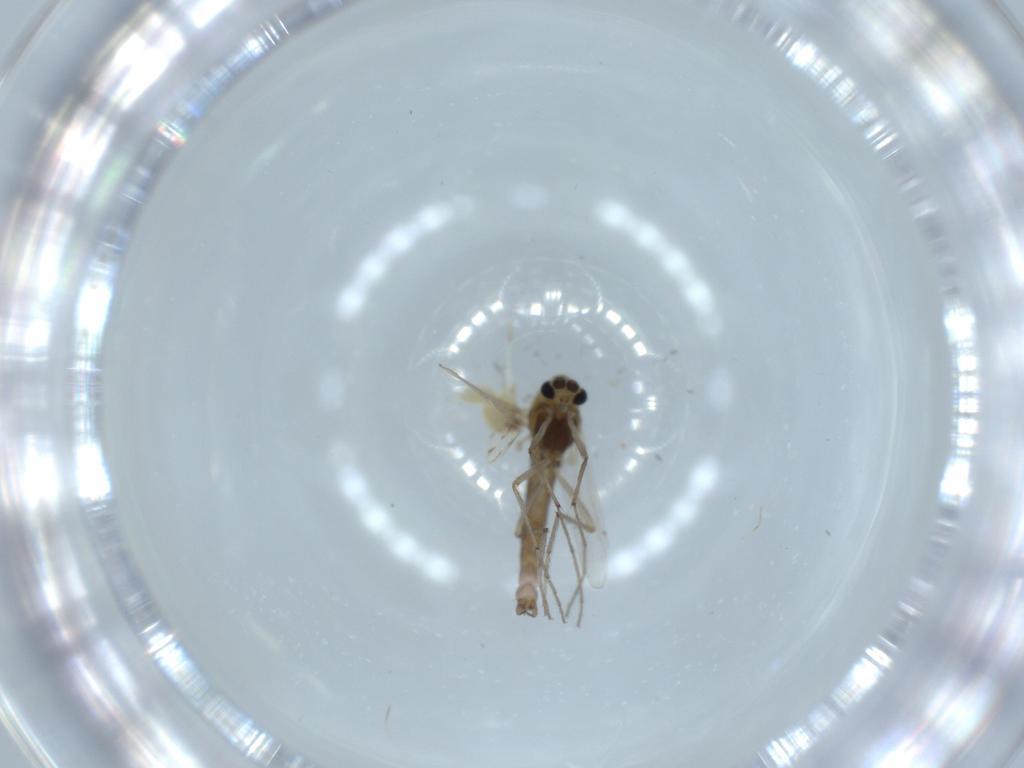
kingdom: Animalia
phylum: Arthropoda
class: Insecta
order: Diptera
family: Chironomidae
